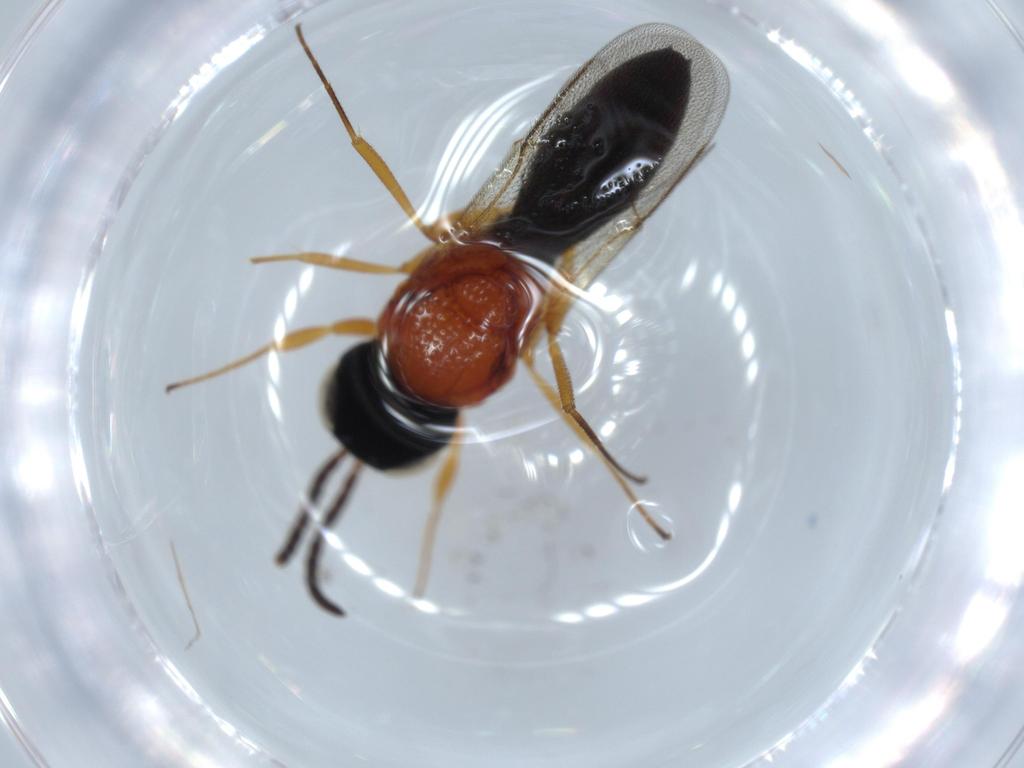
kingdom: Animalia
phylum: Arthropoda
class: Insecta
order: Hymenoptera
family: Scelionidae
